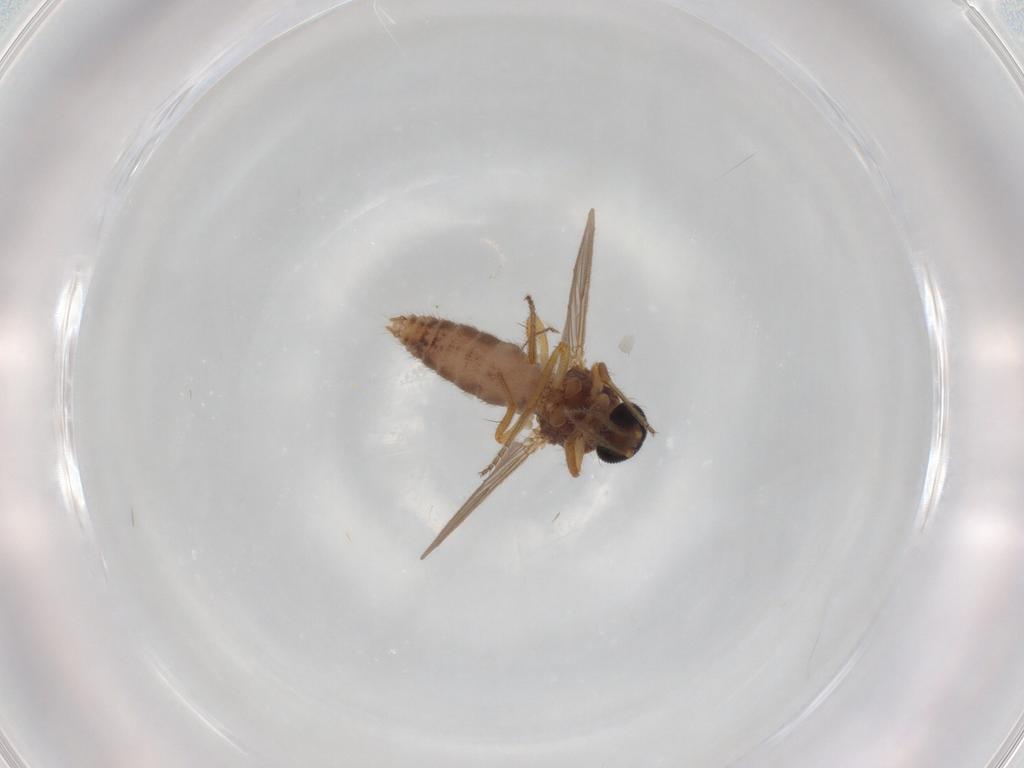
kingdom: Animalia
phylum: Arthropoda
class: Insecta
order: Diptera
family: Ceratopogonidae
